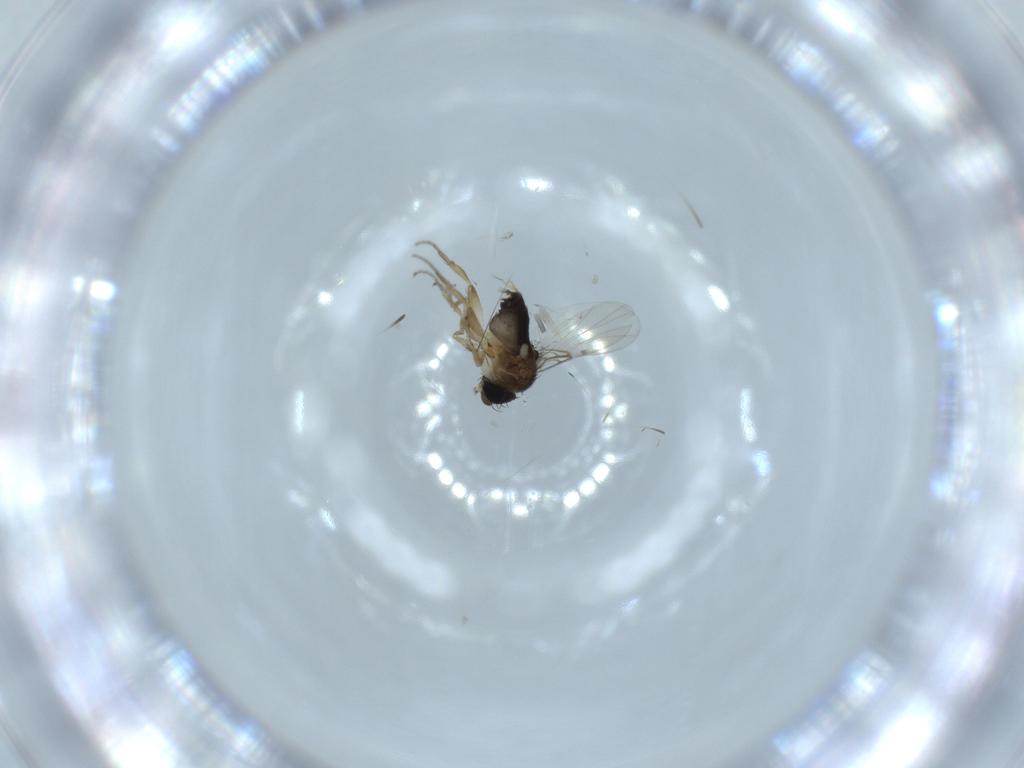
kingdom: Animalia
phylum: Arthropoda
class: Insecta
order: Diptera
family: Phoridae
